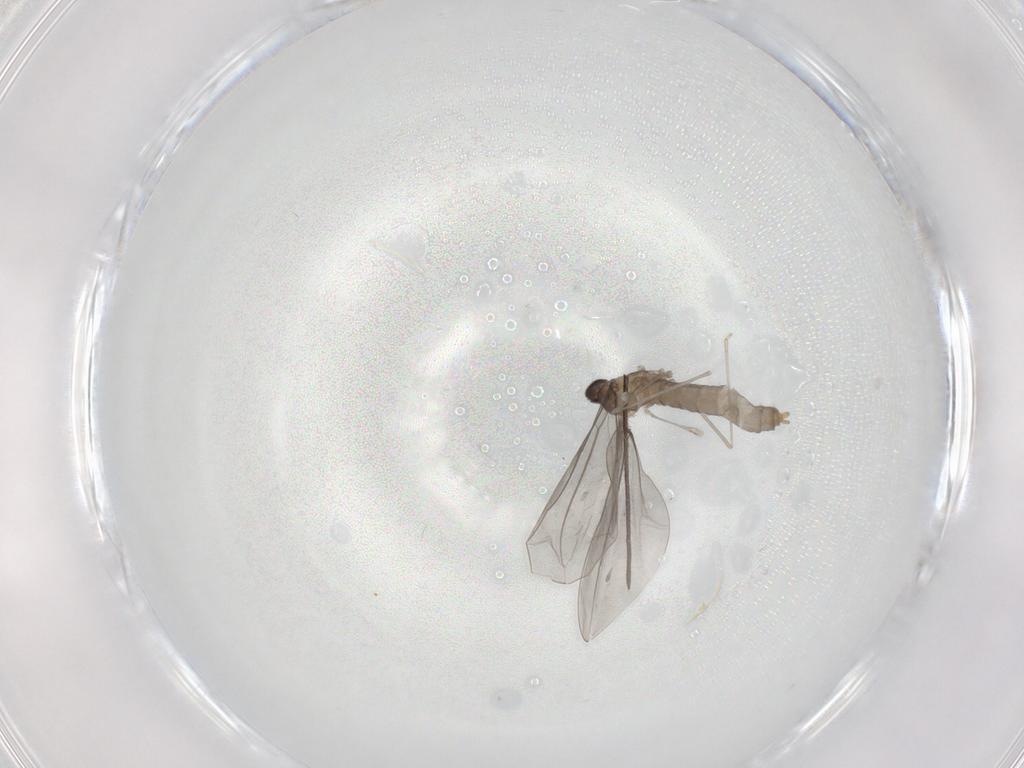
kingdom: Animalia
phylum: Arthropoda
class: Insecta
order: Diptera
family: Cecidomyiidae
